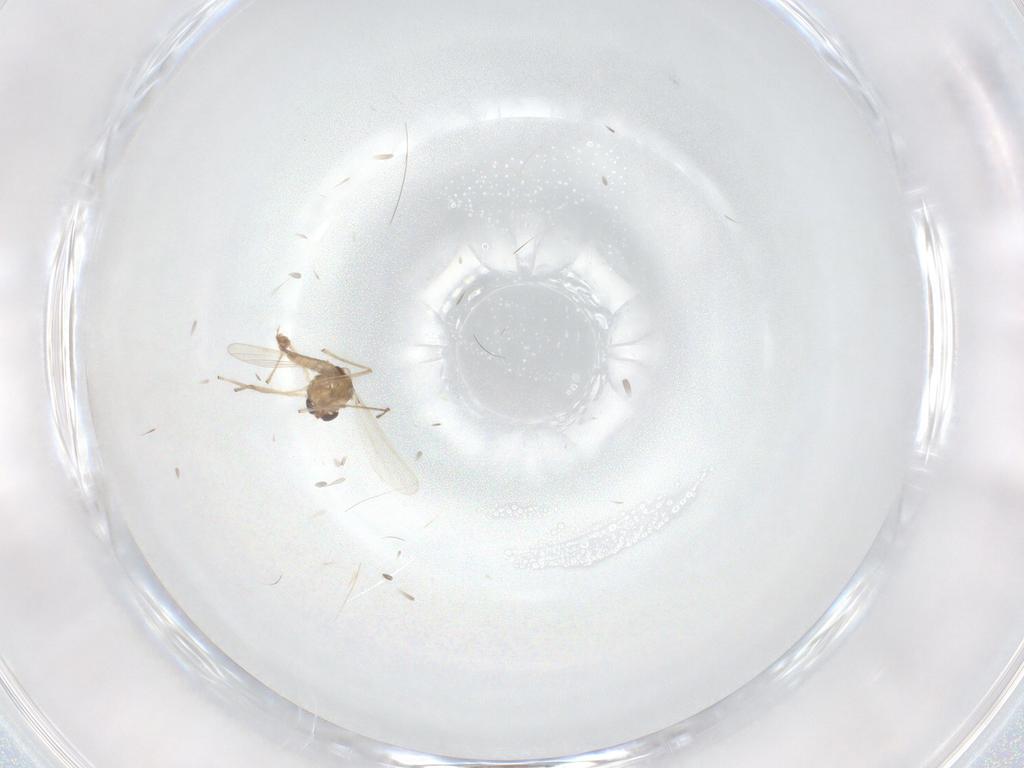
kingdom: Animalia
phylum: Arthropoda
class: Insecta
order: Diptera
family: Chironomidae
